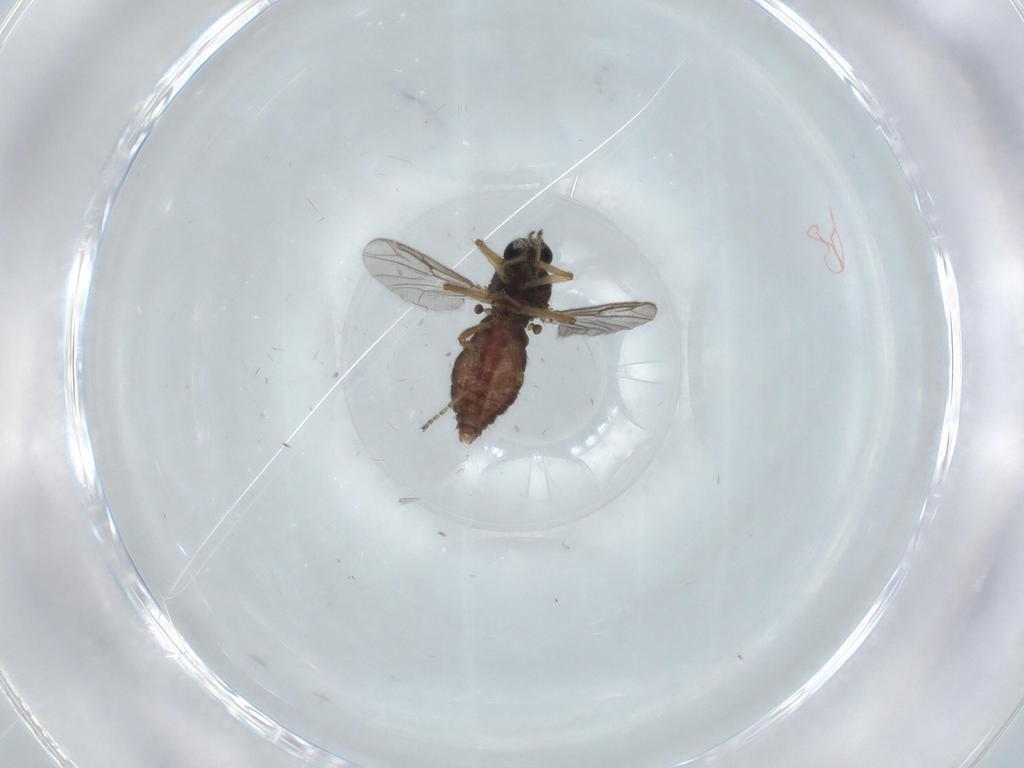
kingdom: Animalia
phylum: Arthropoda
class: Insecta
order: Diptera
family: Ceratopogonidae
